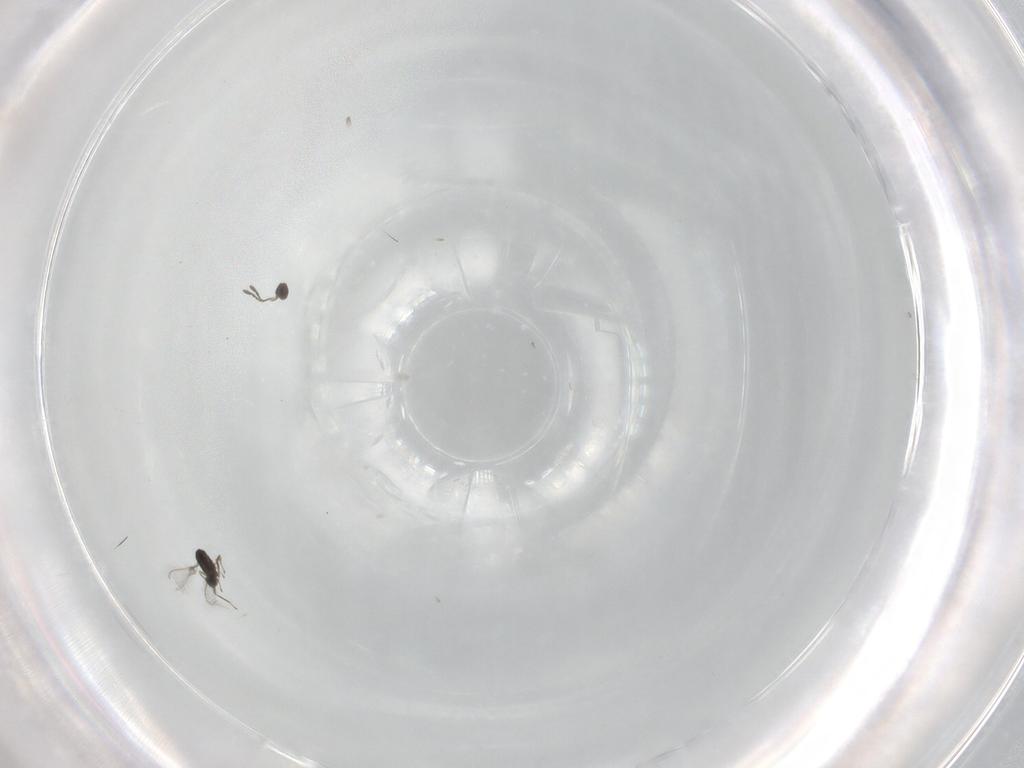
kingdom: Animalia
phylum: Arthropoda
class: Insecta
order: Hymenoptera
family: Mymaridae
